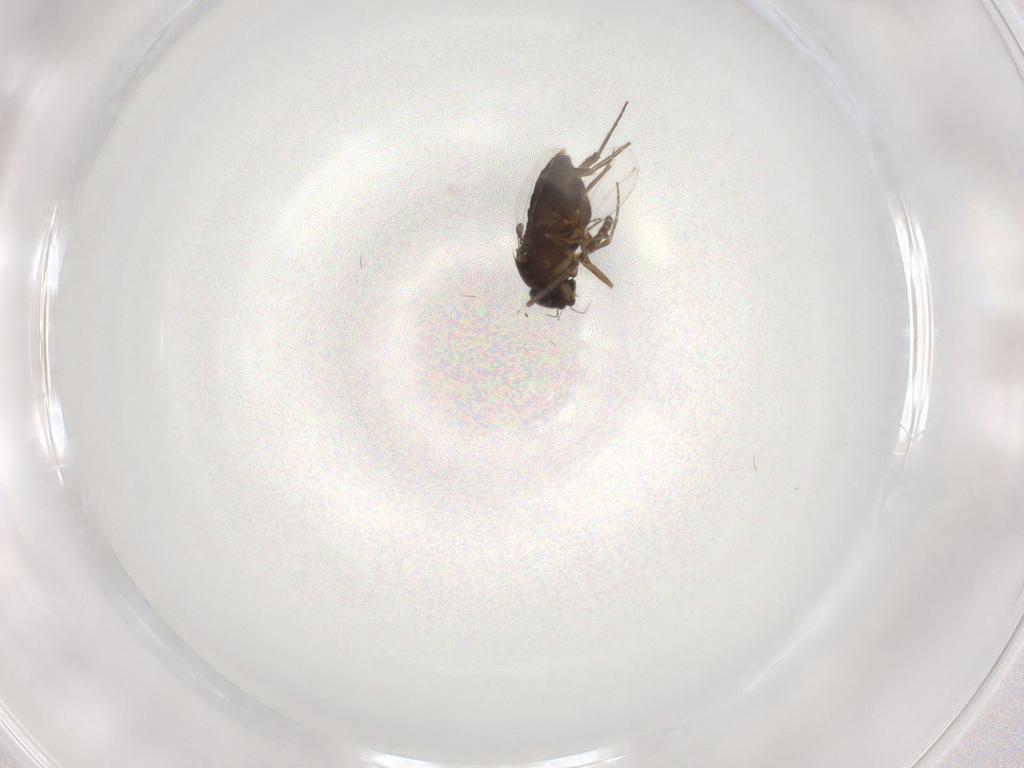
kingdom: Animalia
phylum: Arthropoda
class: Insecta
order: Diptera
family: Phoridae
